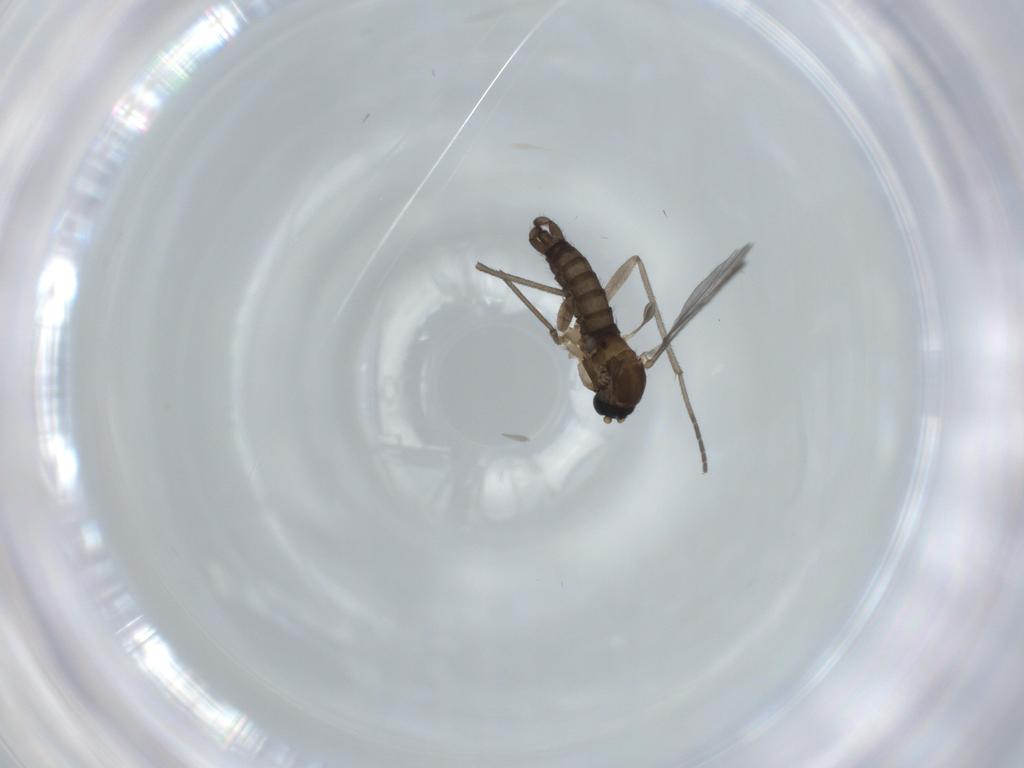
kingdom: Animalia
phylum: Arthropoda
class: Insecta
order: Diptera
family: Sciaridae
